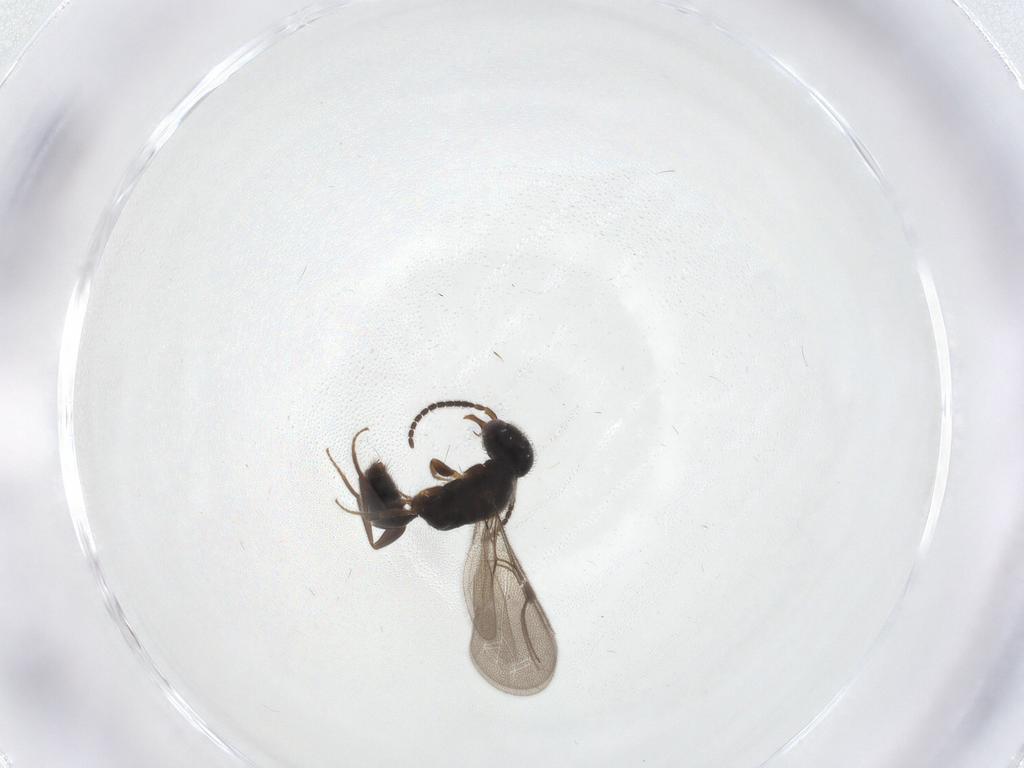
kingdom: Animalia
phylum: Arthropoda
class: Insecta
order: Hymenoptera
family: Bethylidae
